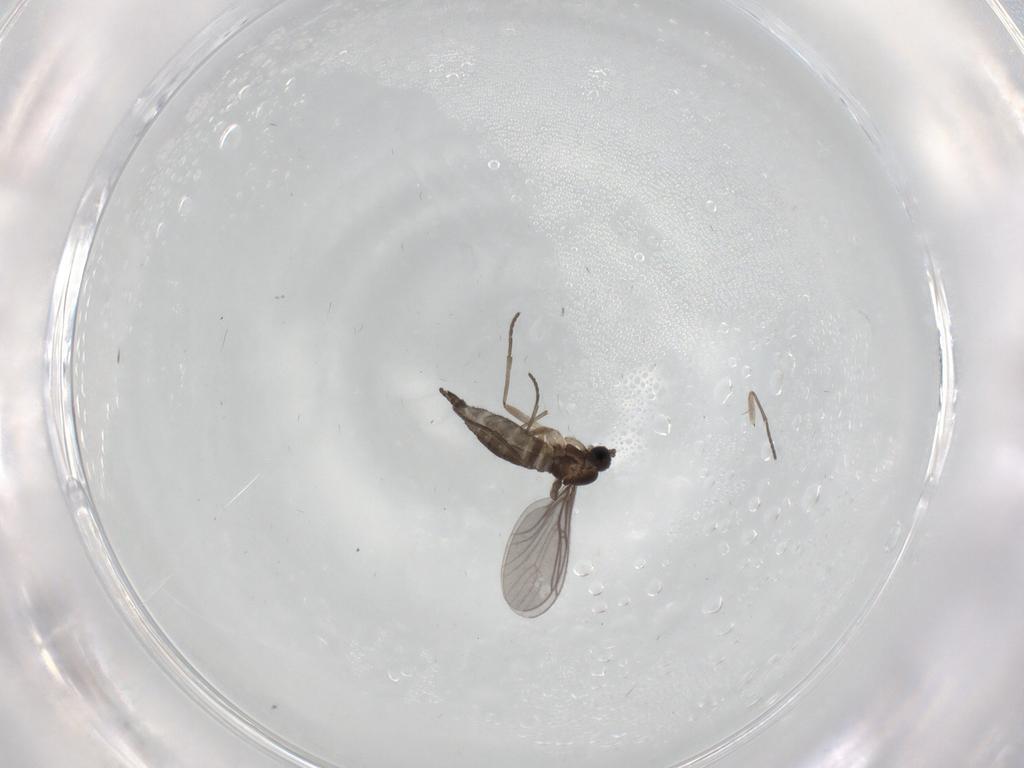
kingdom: Animalia
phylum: Arthropoda
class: Insecta
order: Diptera
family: Sciaridae
